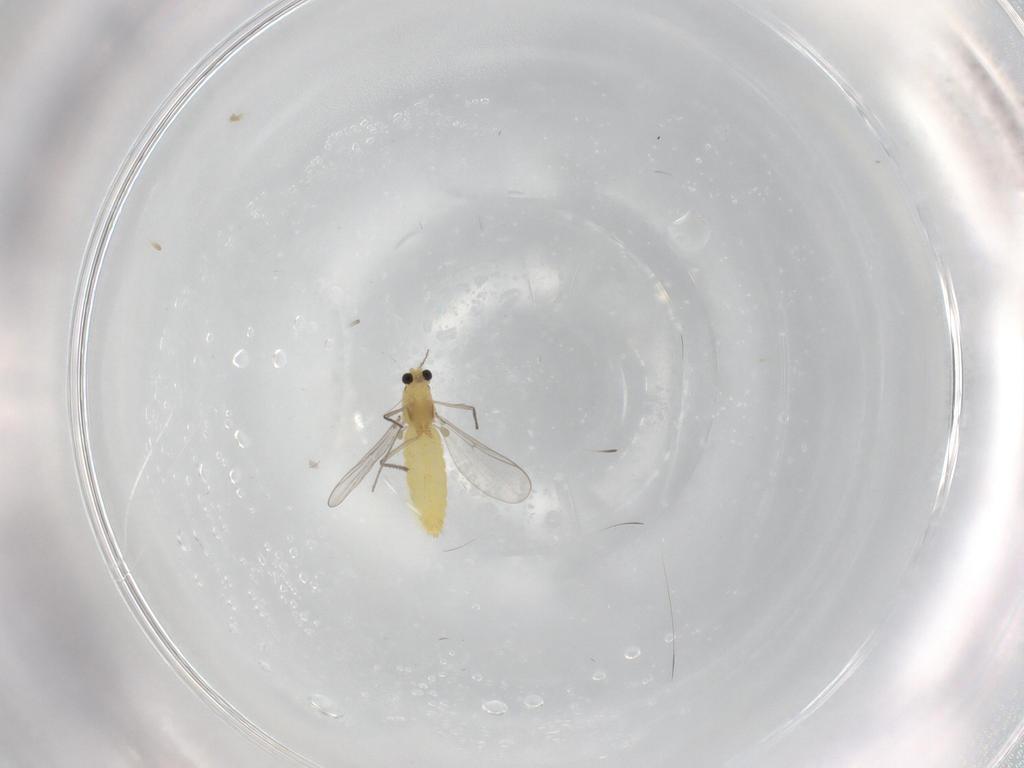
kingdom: Animalia
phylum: Arthropoda
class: Insecta
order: Diptera
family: Chironomidae
